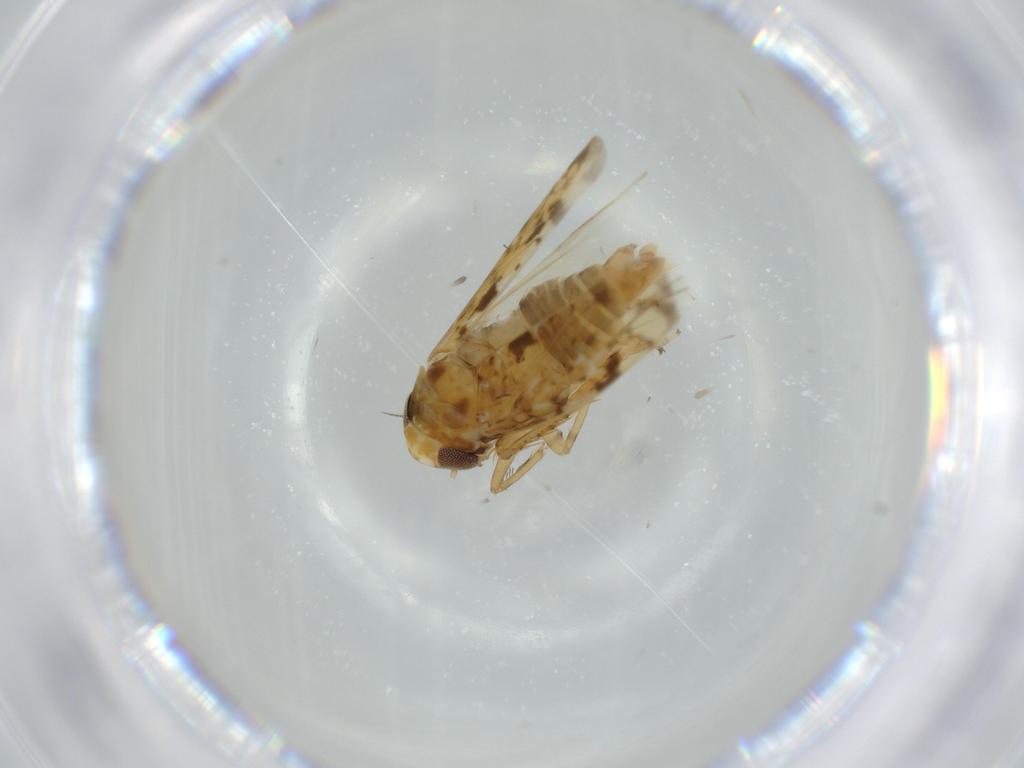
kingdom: Animalia
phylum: Arthropoda
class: Insecta
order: Hemiptera
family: Cicadellidae
